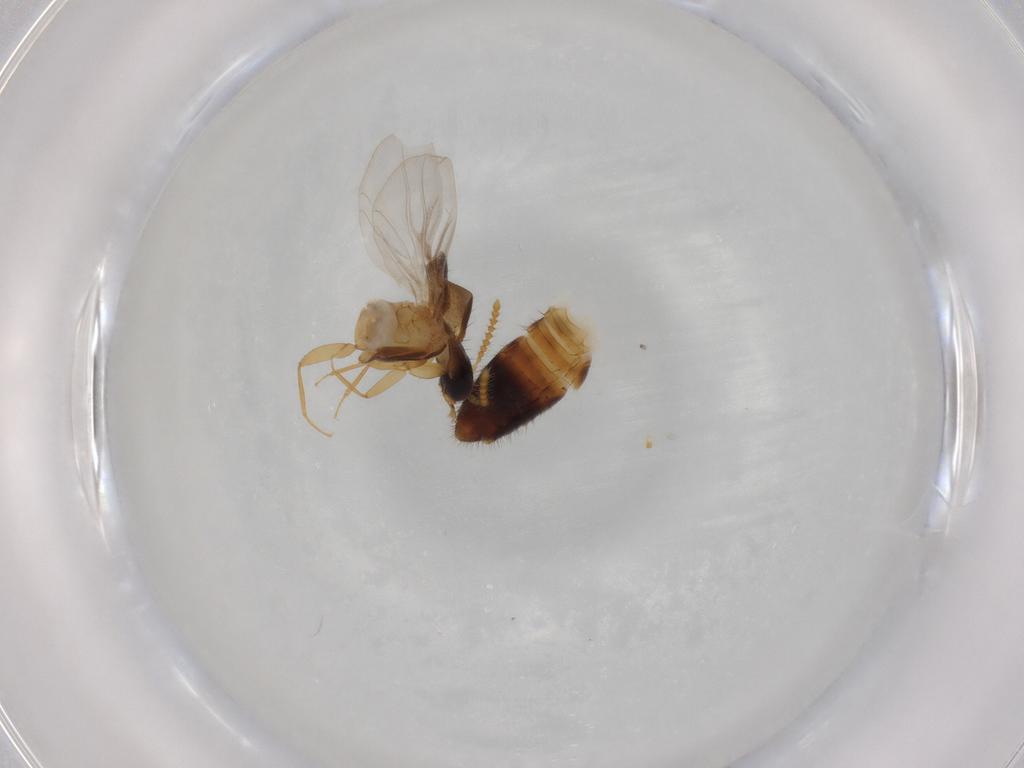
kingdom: Animalia
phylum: Arthropoda
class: Insecta
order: Coleoptera
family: Staphylinidae
